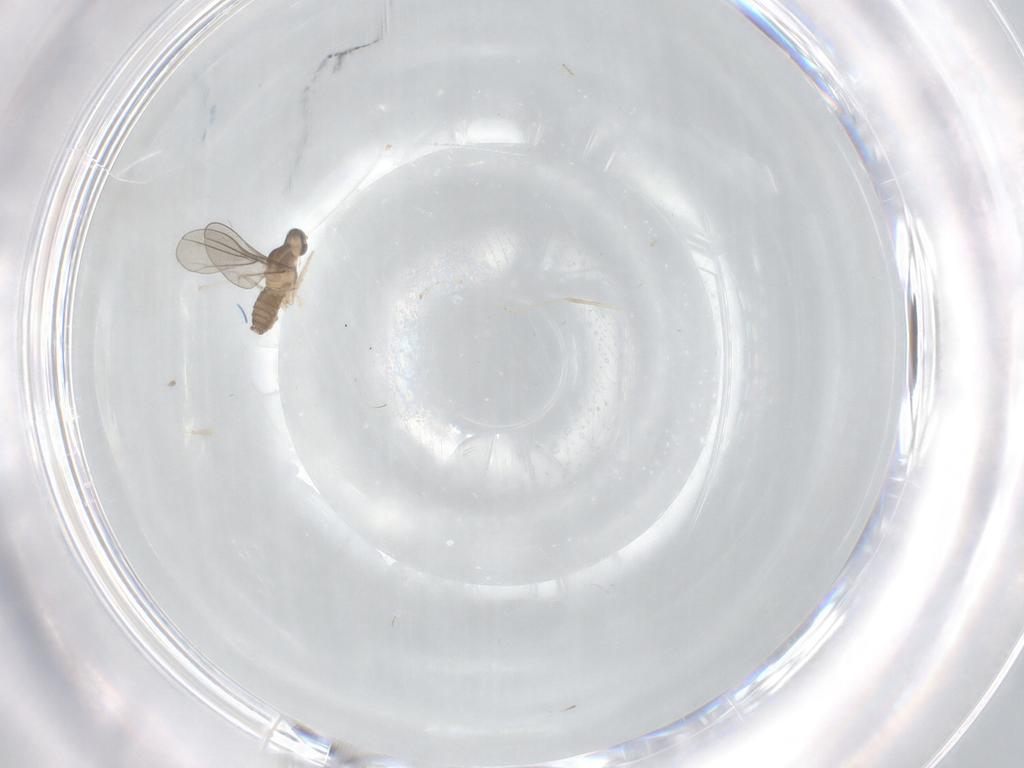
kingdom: Animalia
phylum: Arthropoda
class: Insecta
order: Diptera
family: Cecidomyiidae
